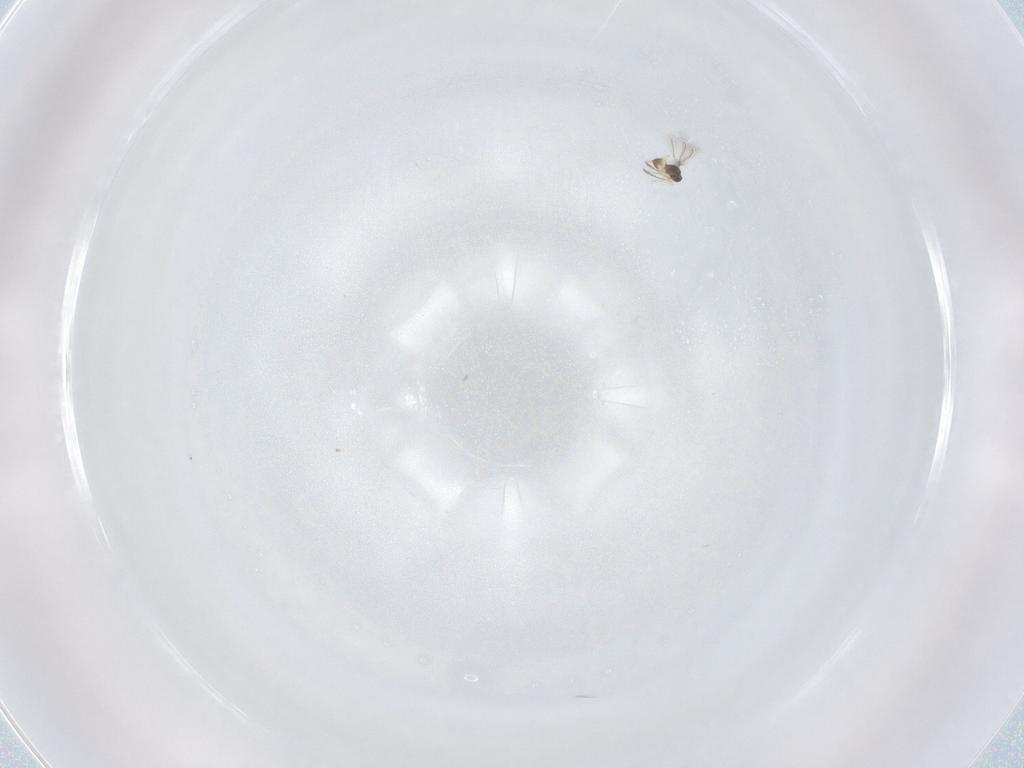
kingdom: Animalia
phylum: Arthropoda
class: Insecta
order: Hymenoptera
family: Mymaridae
